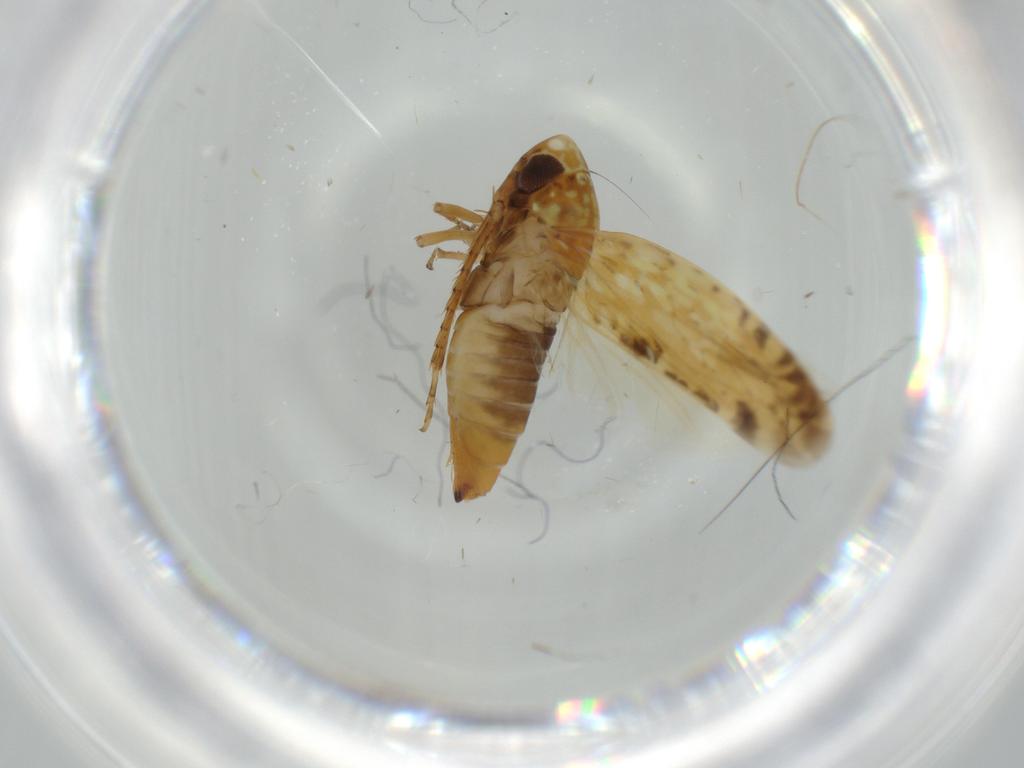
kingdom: Animalia
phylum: Arthropoda
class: Insecta
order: Hemiptera
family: Cicadellidae
